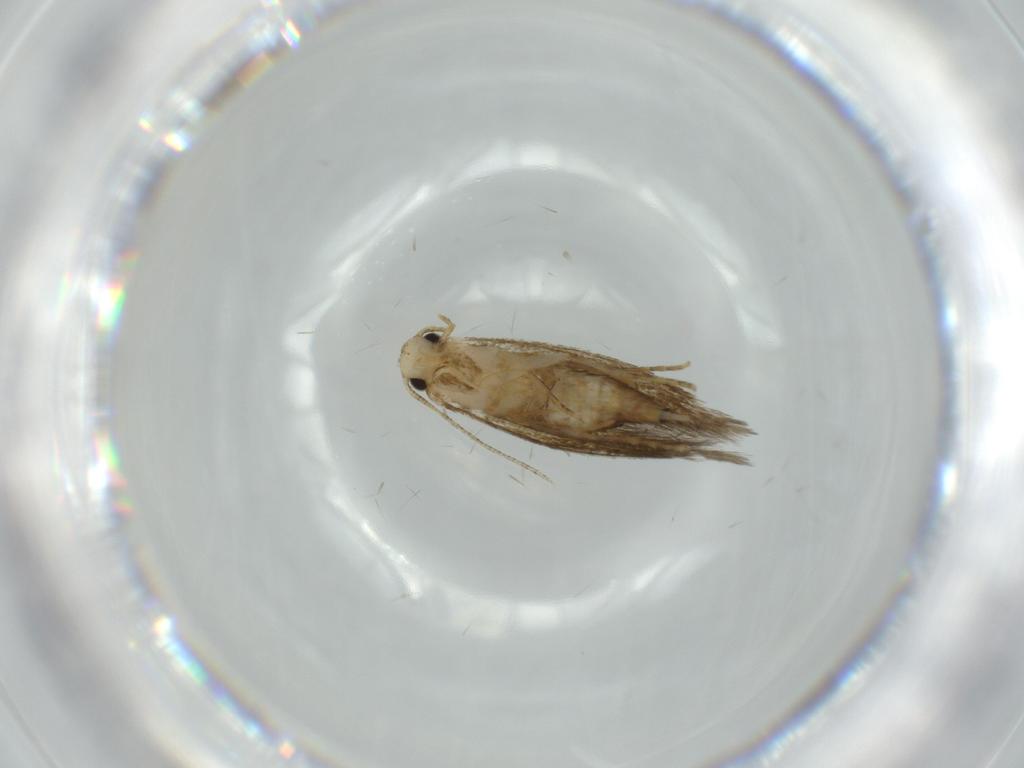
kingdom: Animalia
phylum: Arthropoda
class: Insecta
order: Lepidoptera
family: Tineidae
